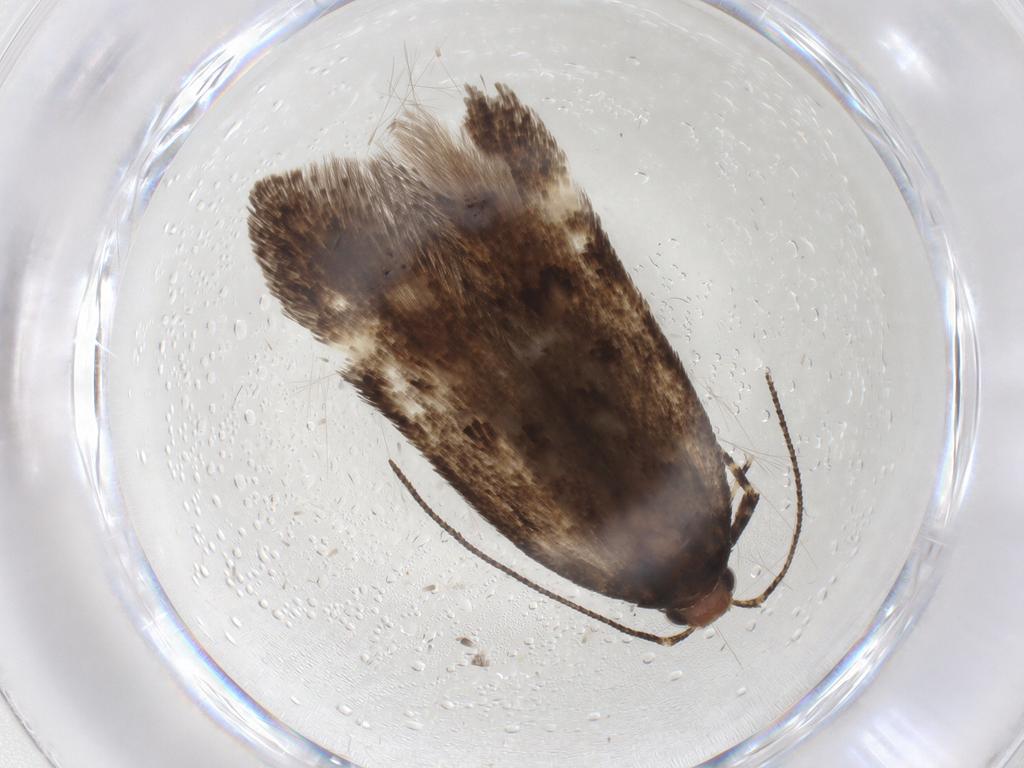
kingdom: Animalia
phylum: Arthropoda
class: Insecta
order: Lepidoptera
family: Gelechiidae
